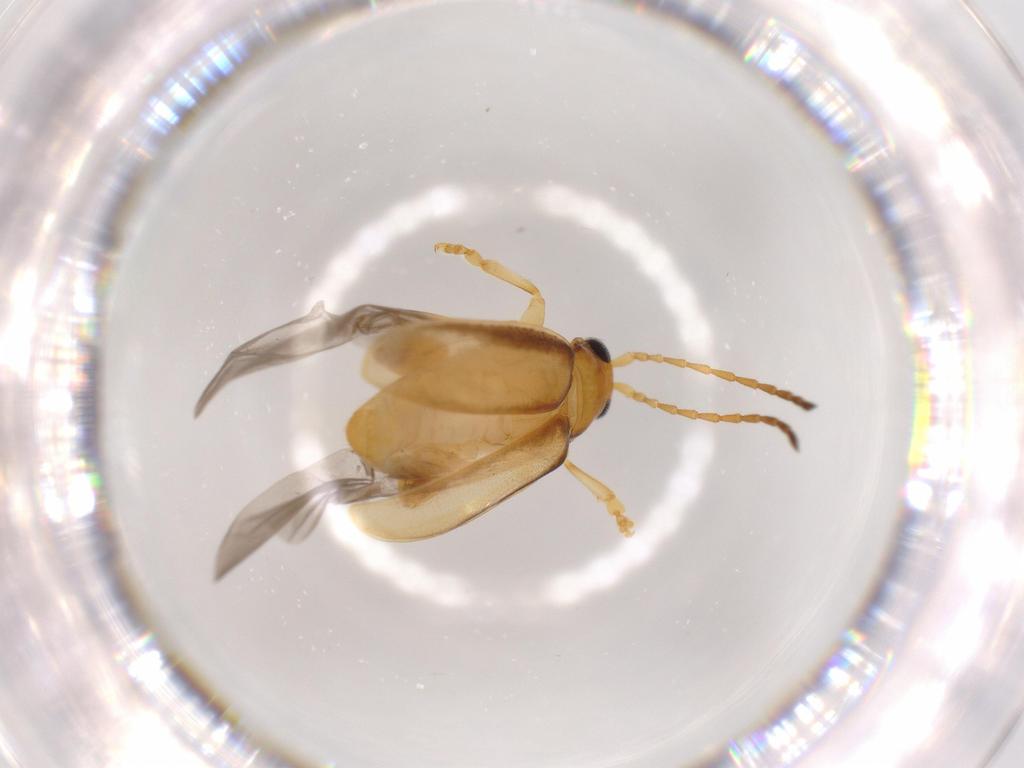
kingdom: Animalia
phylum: Arthropoda
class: Insecta
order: Coleoptera
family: Chrysomelidae
